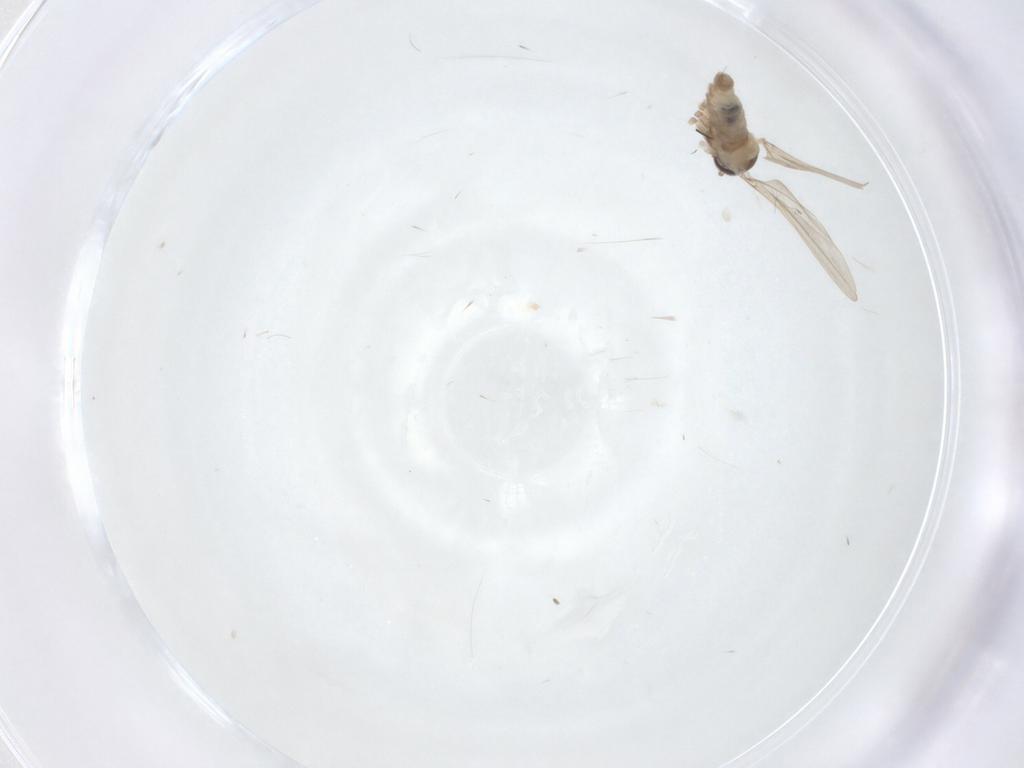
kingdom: Animalia
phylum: Arthropoda
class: Insecta
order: Diptera
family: Cecidomyiidae
